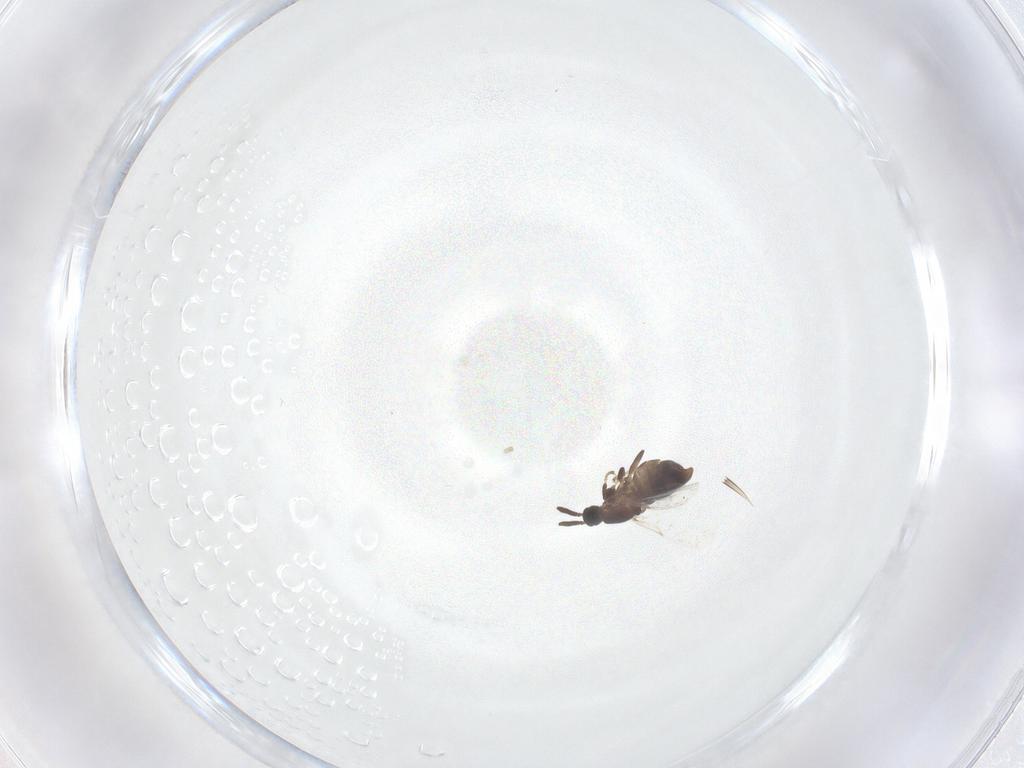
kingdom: Animalia
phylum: Arthropoda
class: Insecta
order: Diptera
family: Scatopsidae
